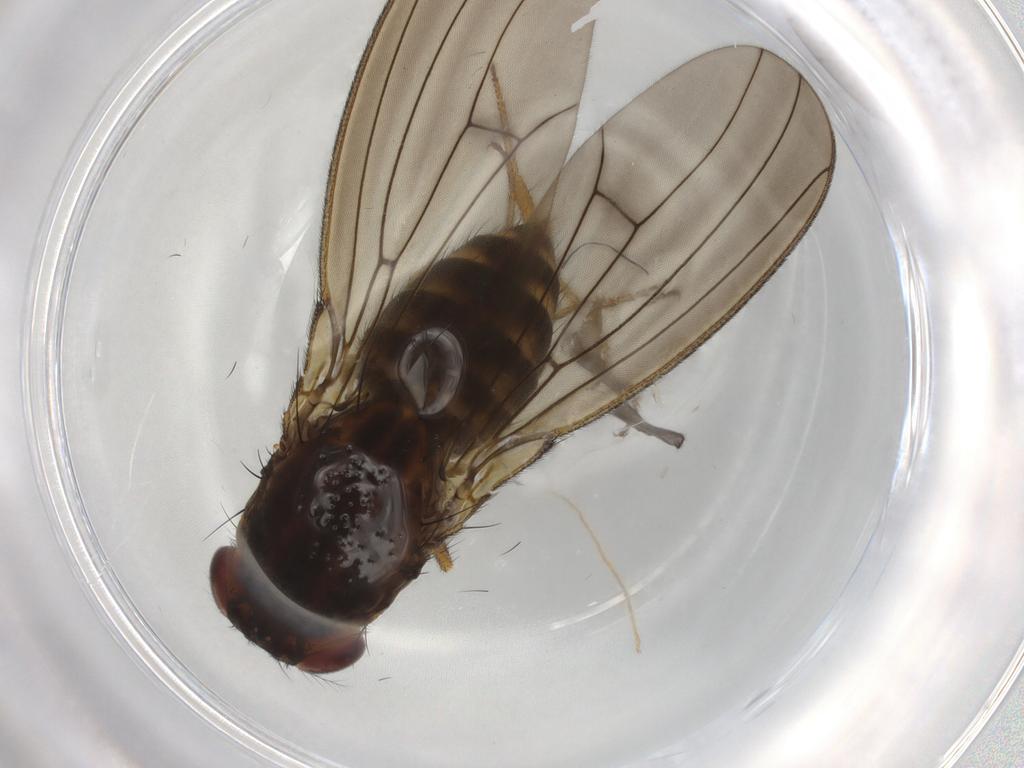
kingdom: Animalia
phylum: Arthropoda
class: Insecta
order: Diptera
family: Drosophilidae
